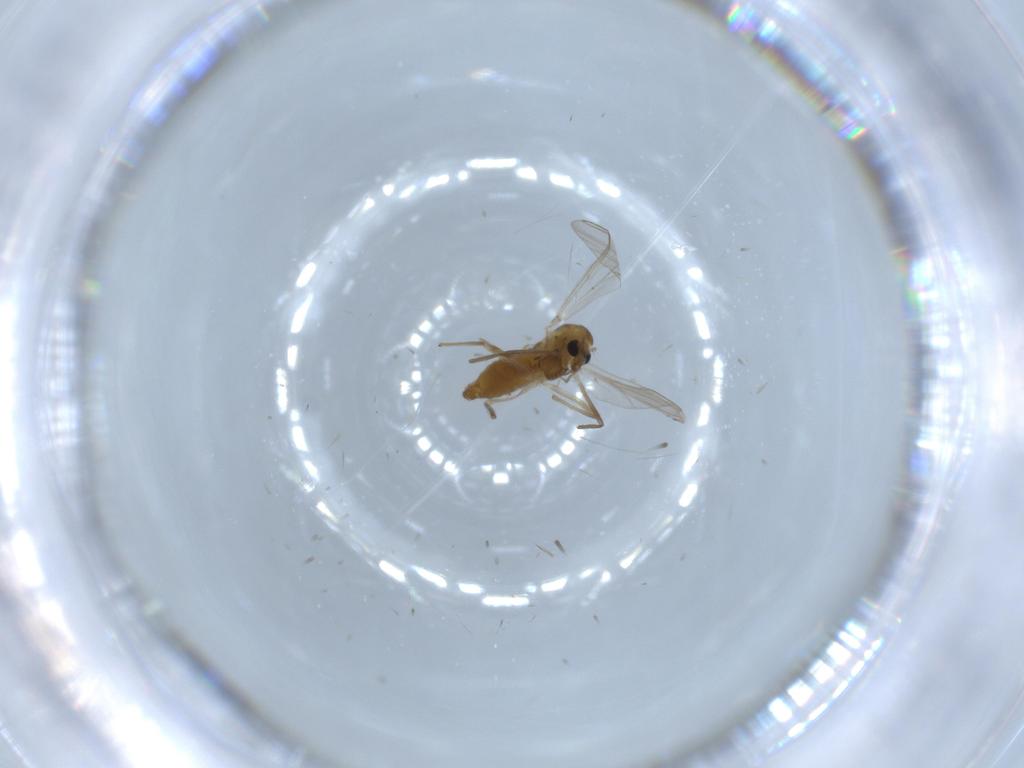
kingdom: Animalia
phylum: Arthropoda
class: Insecta
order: Diptera
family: Chironomidae
